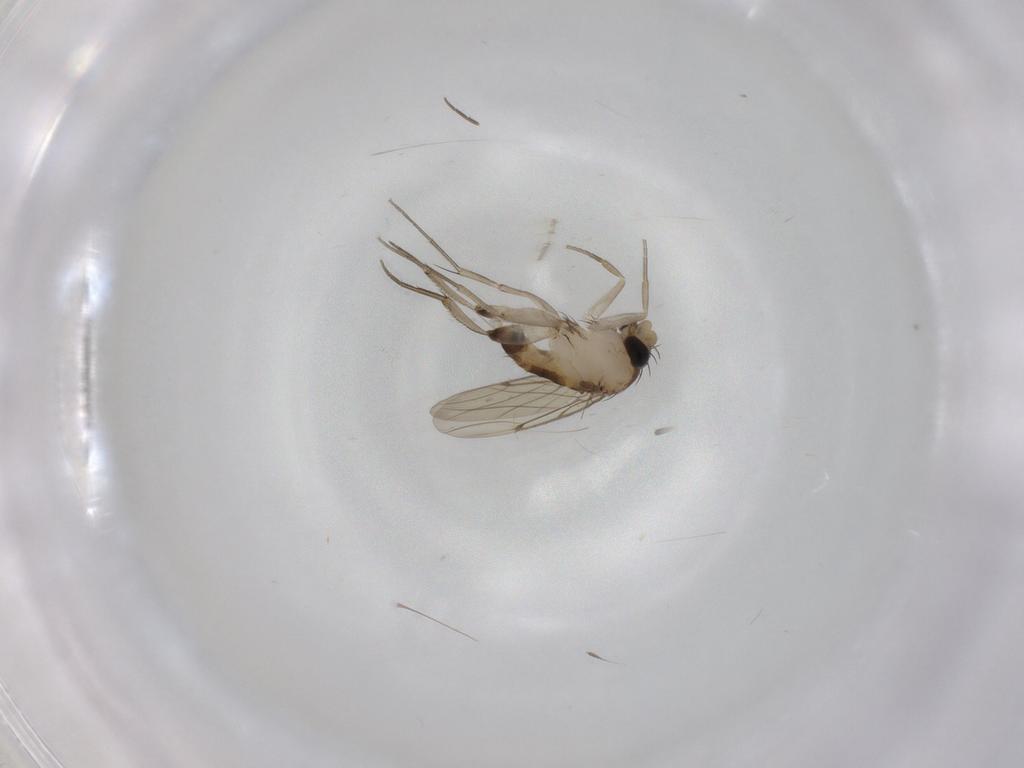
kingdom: Animalia
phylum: Arthropoda
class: Insecta
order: Diptera
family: Phoridae
